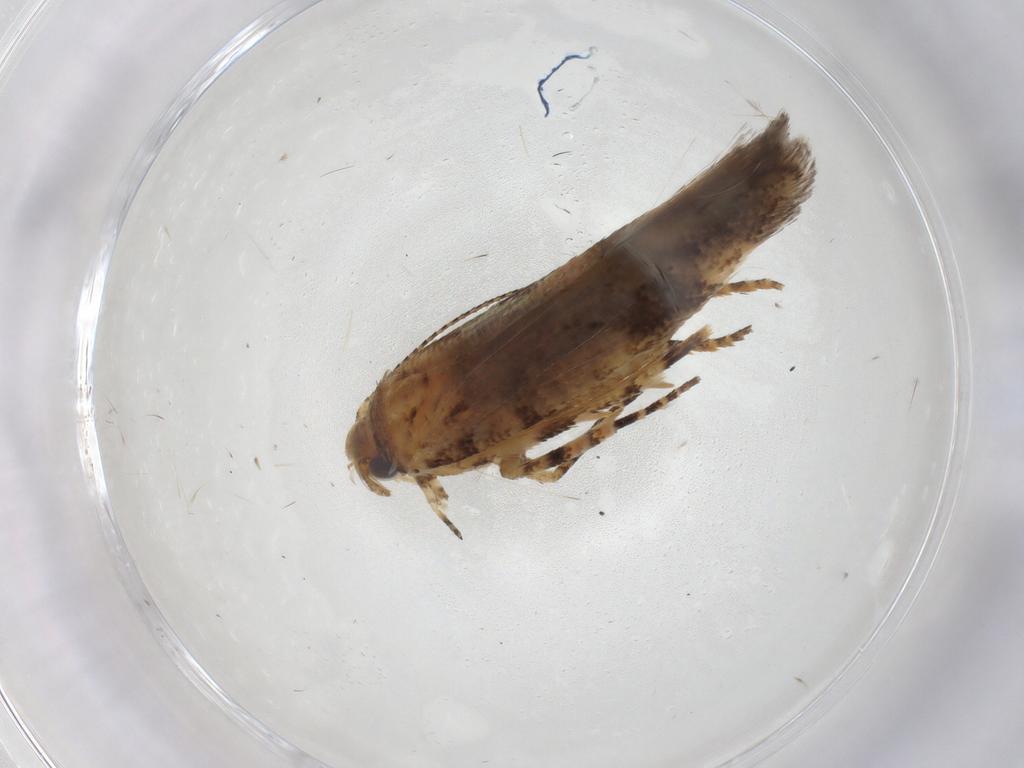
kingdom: Animalia
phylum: Arthropoda
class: Insecta
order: Lepidoptera
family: Gelechiidae
